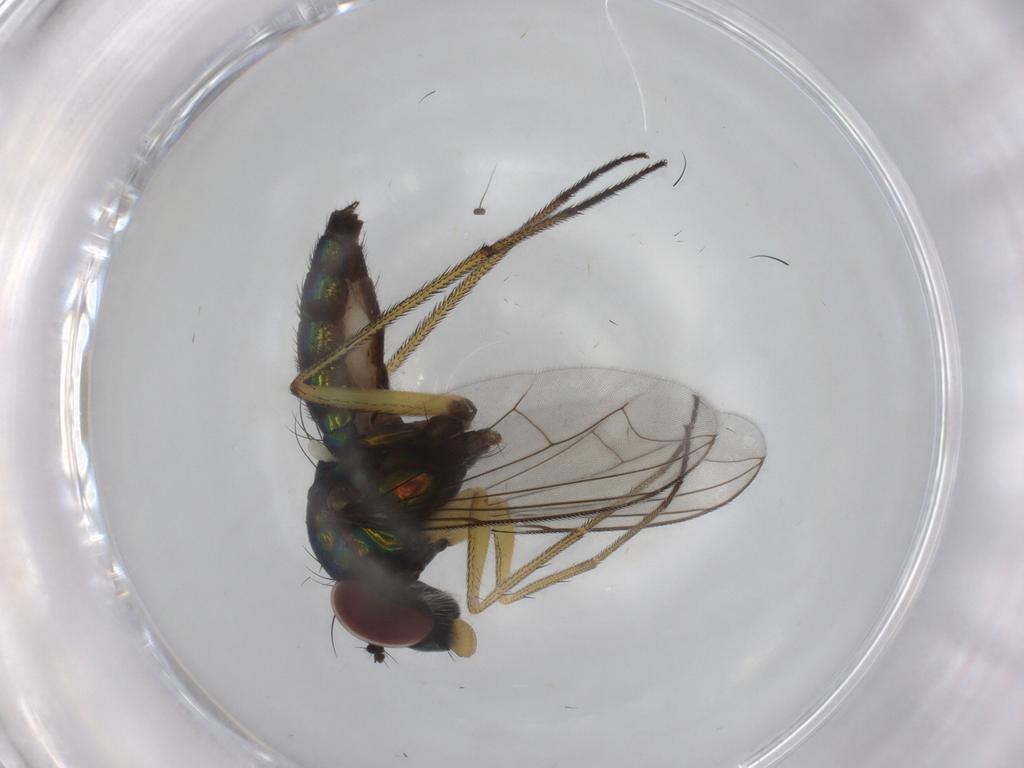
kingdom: Animalia
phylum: Arthropoda
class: Insecta
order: Diptera
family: Dolichopodidae
